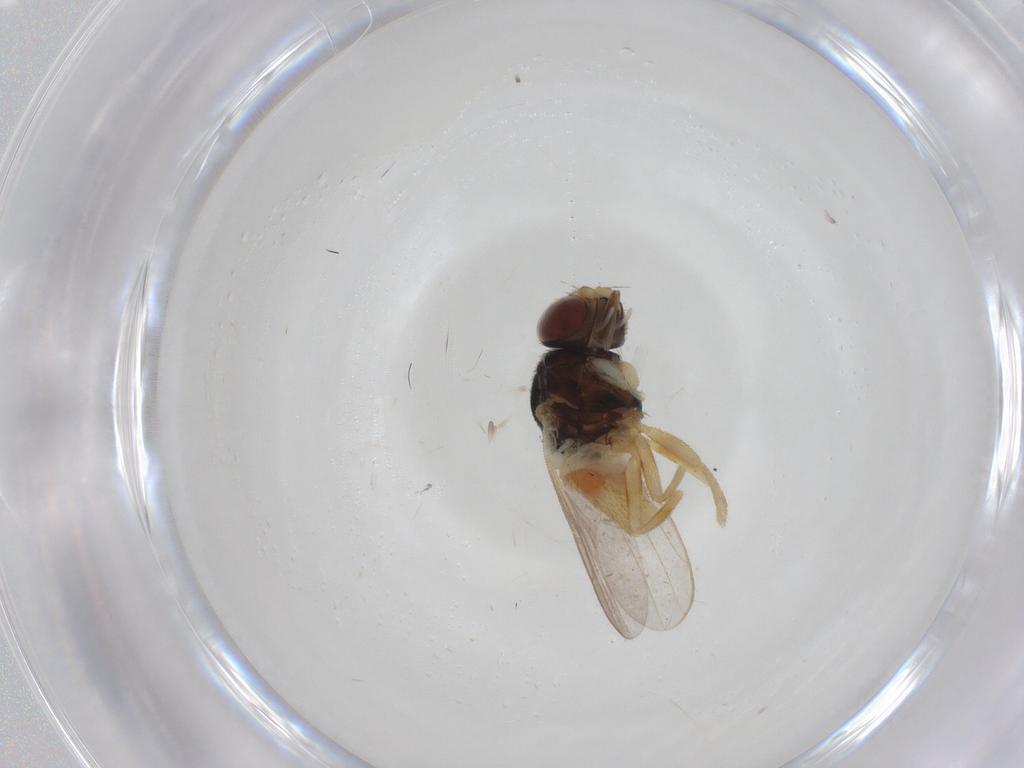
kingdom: Animalia
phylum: Arthropoda
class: Insecta
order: Diptera
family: Chloropidae
